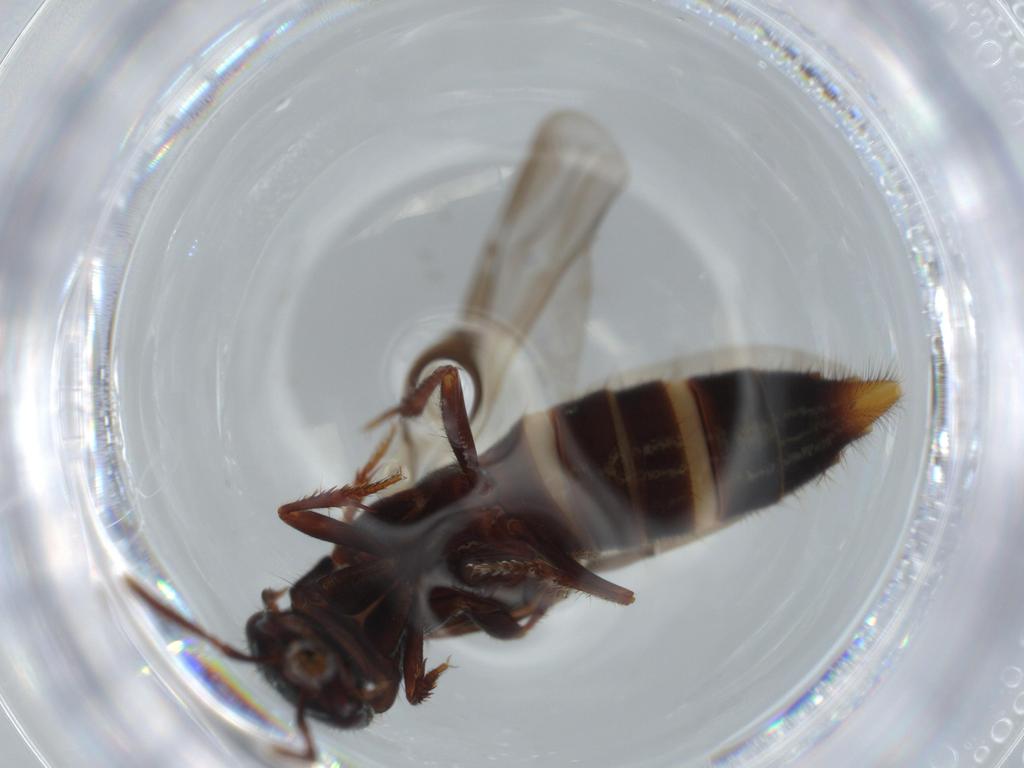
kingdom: Animalia
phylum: Arthropoda
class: Insecta
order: Coleoptera
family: Staphylinidae
